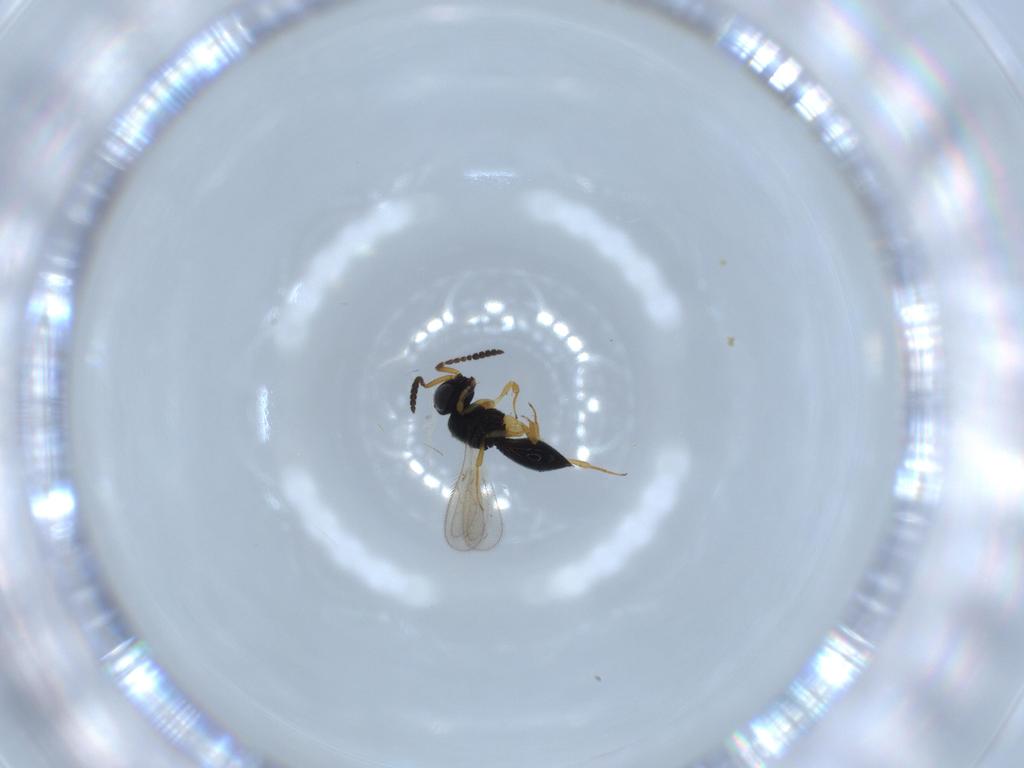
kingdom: Animalia
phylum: Arthropoda
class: Insecta
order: Hymenoptera
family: Scelionidae
